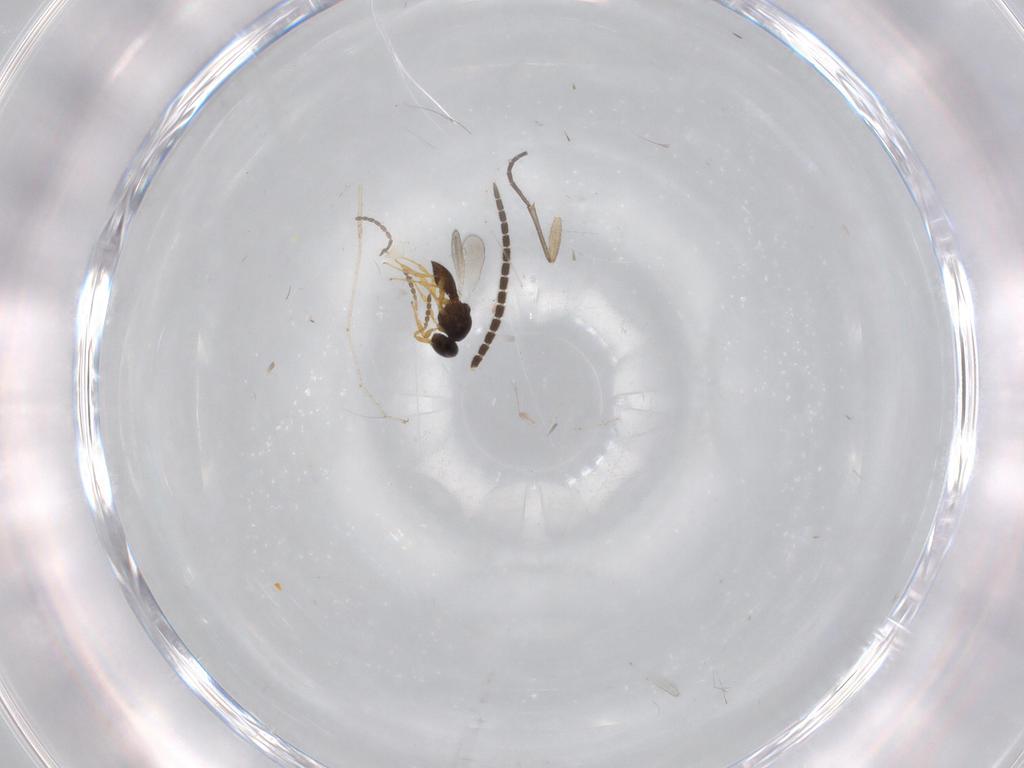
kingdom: Animalia
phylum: Arthropoda
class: Insecta
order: Hymenoptera
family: Platygastridae
